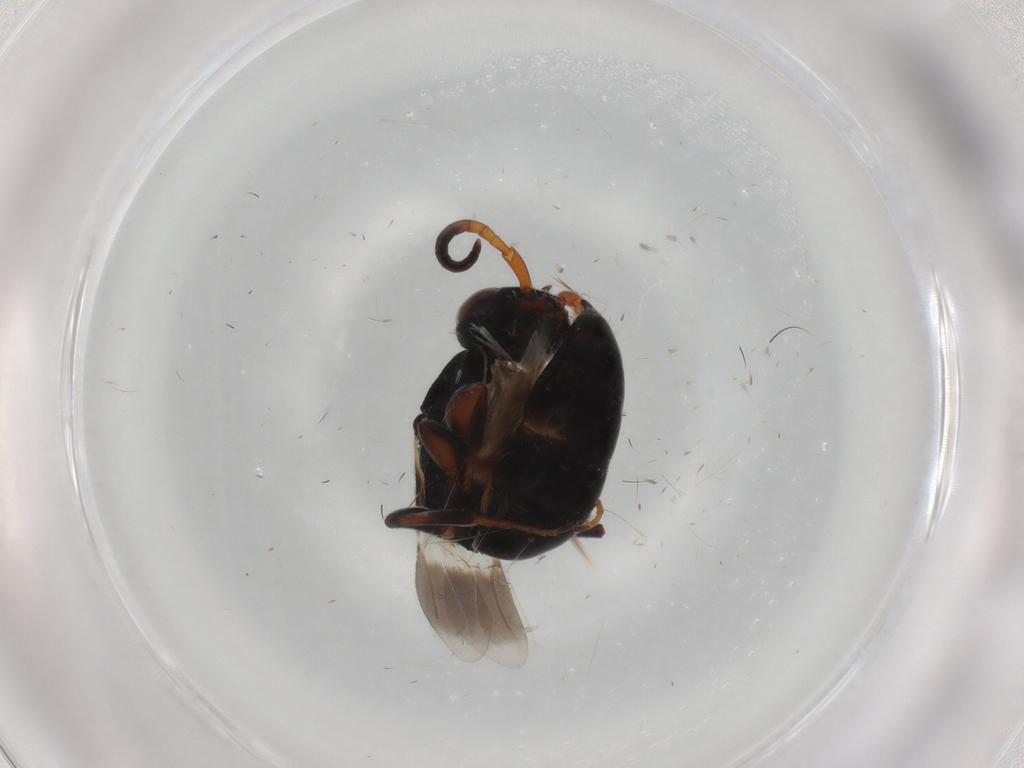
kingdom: Animalia
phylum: Arthropoda
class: Insecta
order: Hymenoptera
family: Bethylidae
